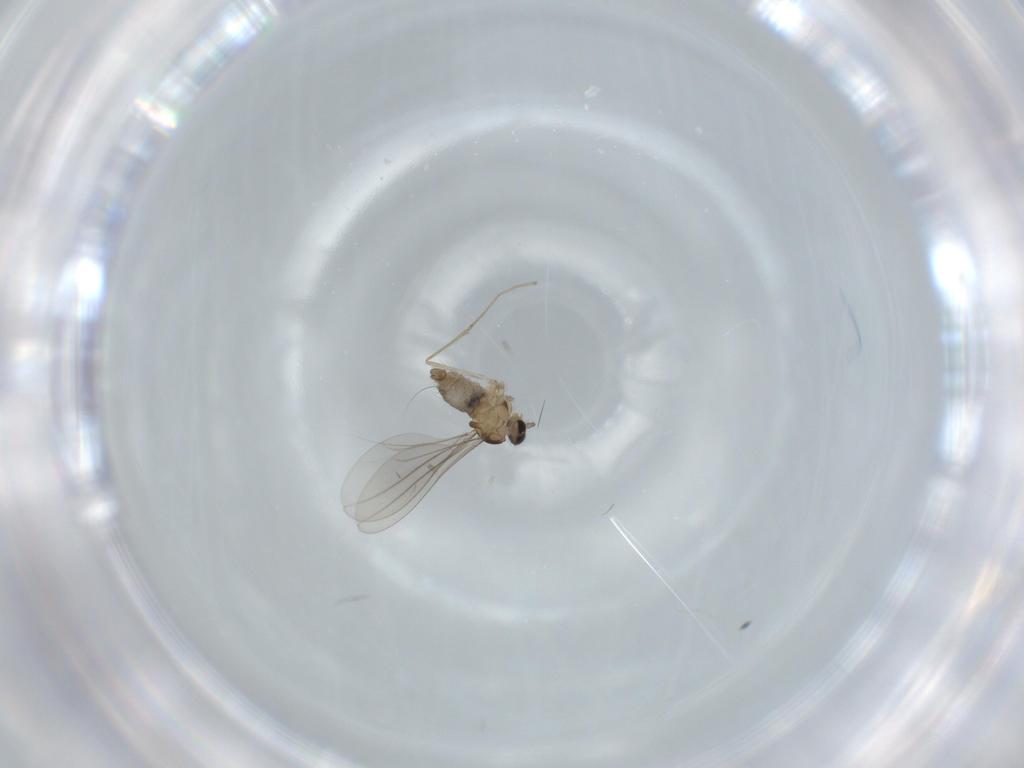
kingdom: Animalia
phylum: Arthropoda
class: Insecta
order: Diptera
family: Cecidomyiidae
